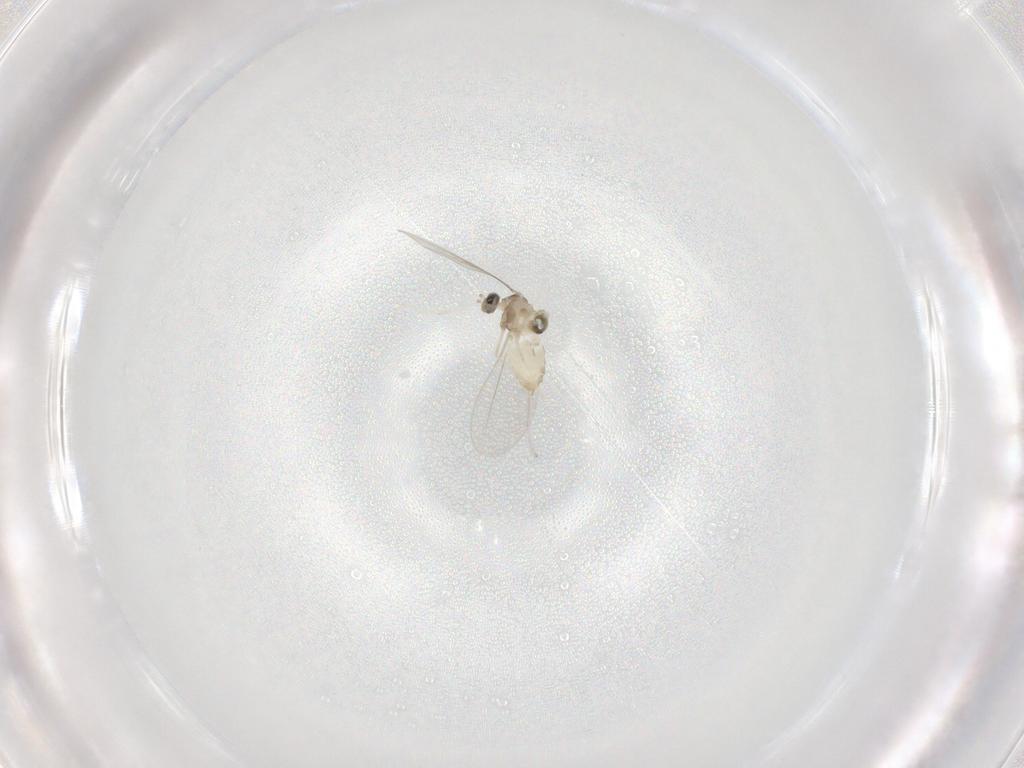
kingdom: Animalia
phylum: Arthropoda
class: Insecta
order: Diptera
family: Cecidomyiidae
